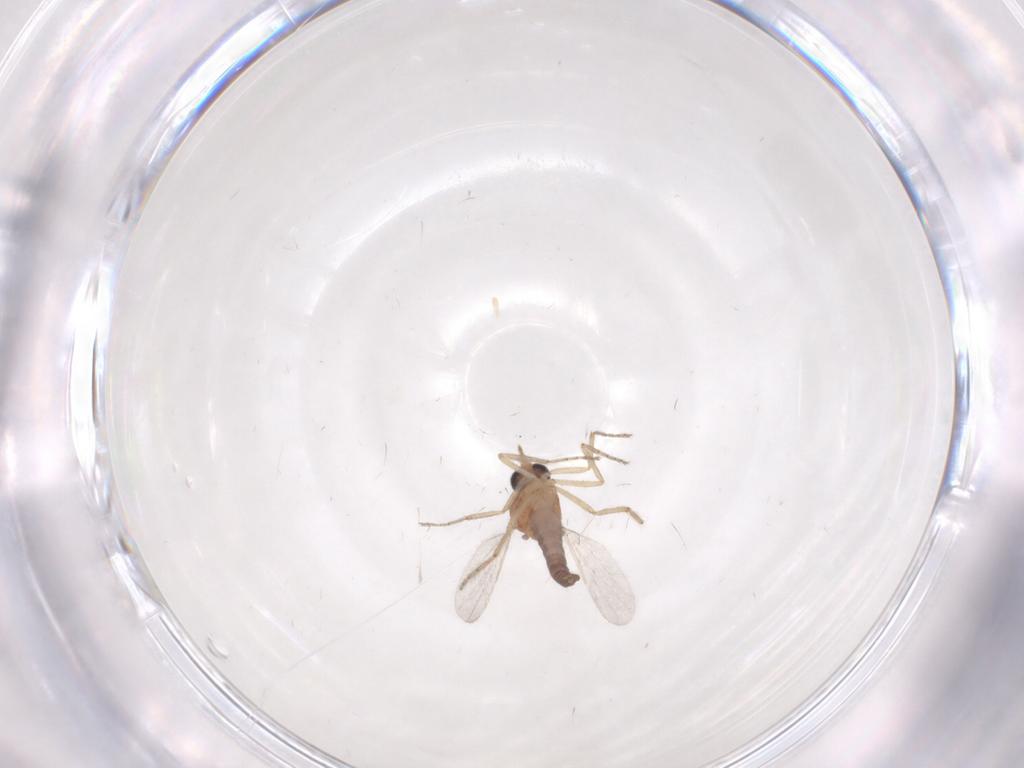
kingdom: Animalia
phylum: Arthropoda
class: Insecta
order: Diptera
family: Ceratopogonidae
